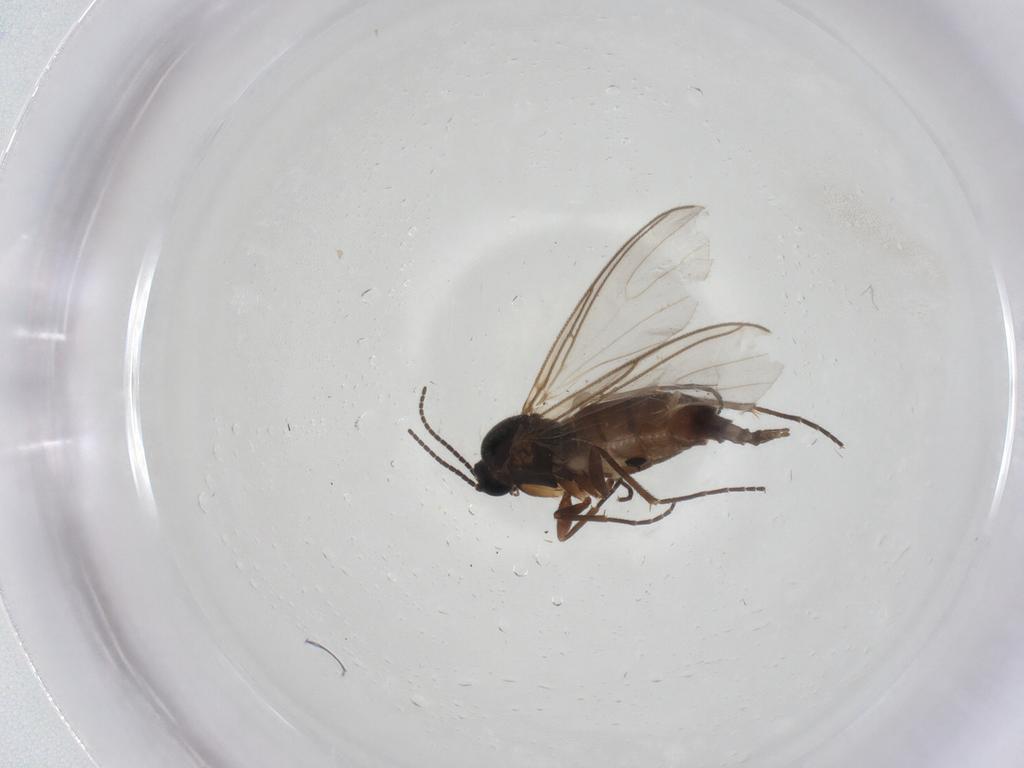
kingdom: Animalia
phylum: Arthropoda
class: Insecta
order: Diptera
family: Sciaridae
